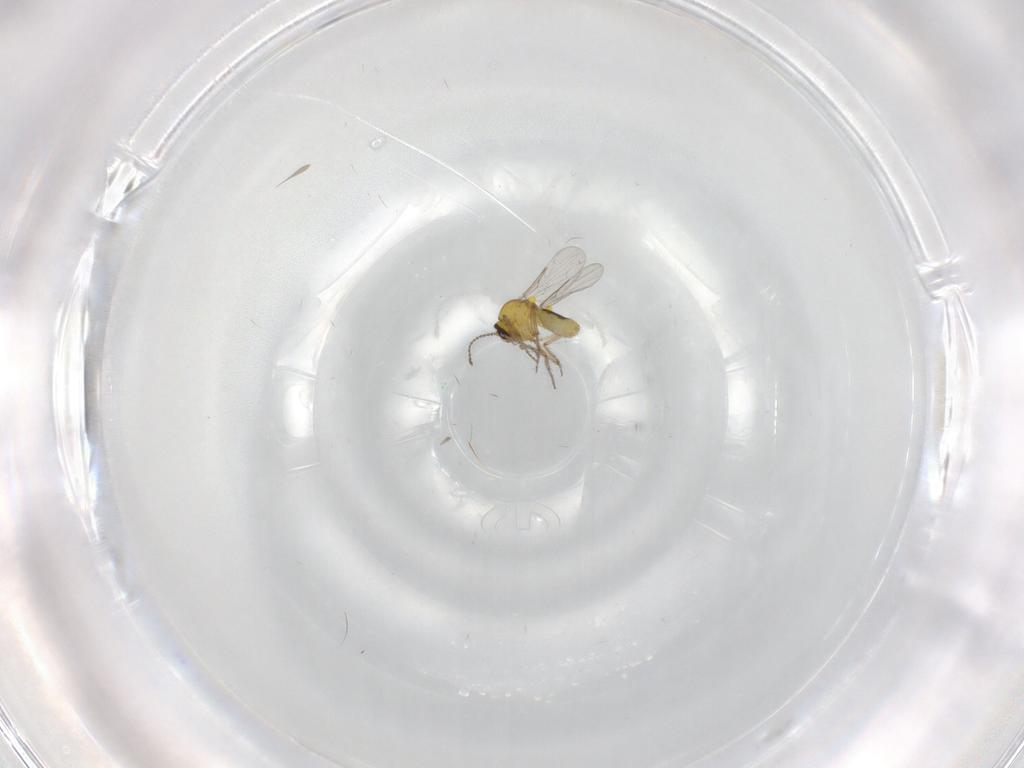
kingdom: Animalia
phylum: Arthropoda
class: Insecta
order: Diptera
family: Ceratopogonidae
